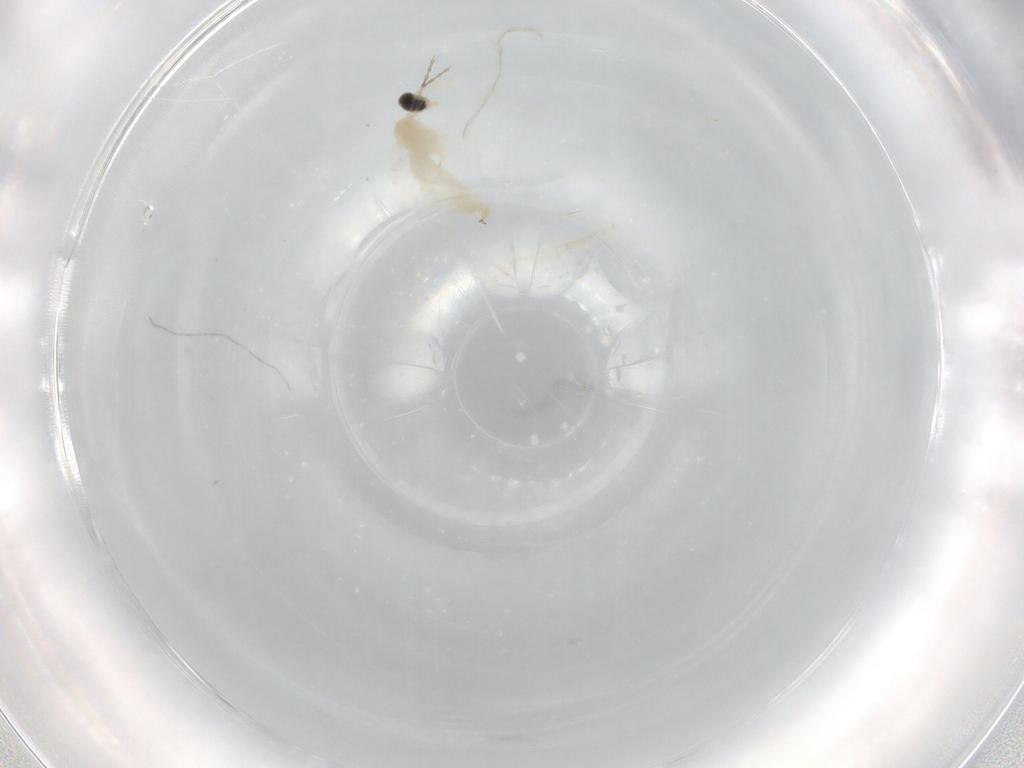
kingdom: Animalia
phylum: Arthropoda
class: Insecta
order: Diptera
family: Cecidomyiidae
